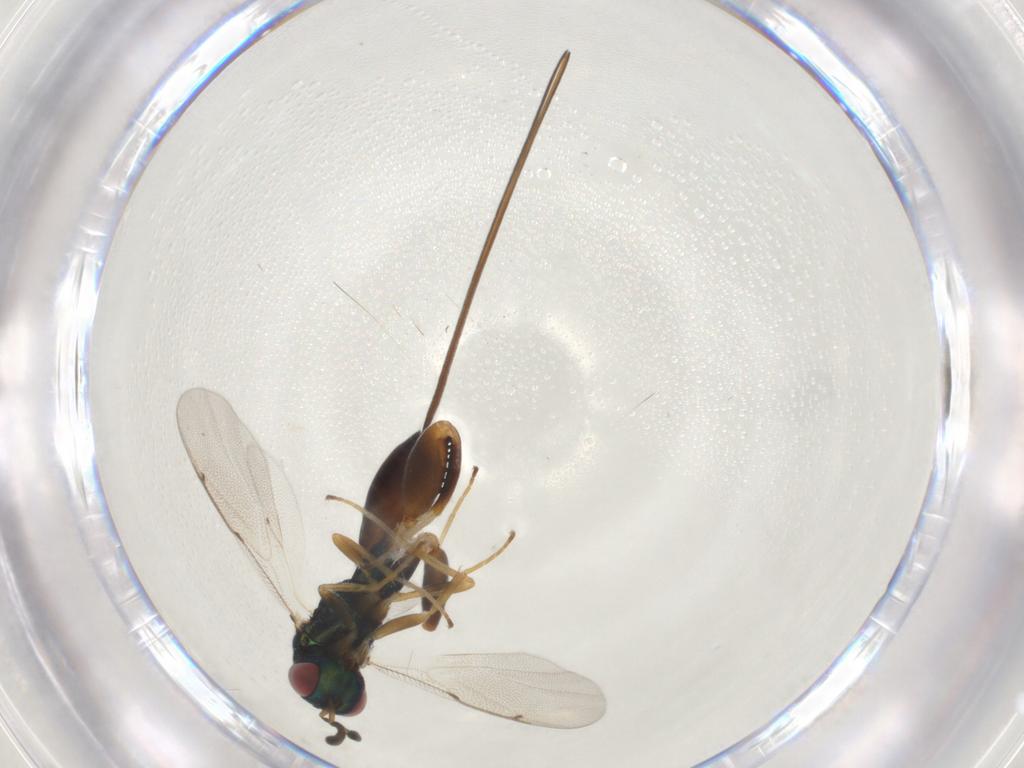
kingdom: Animalia
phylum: Arthropoda
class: Insecta
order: Hymenoptera
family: Torymidae
